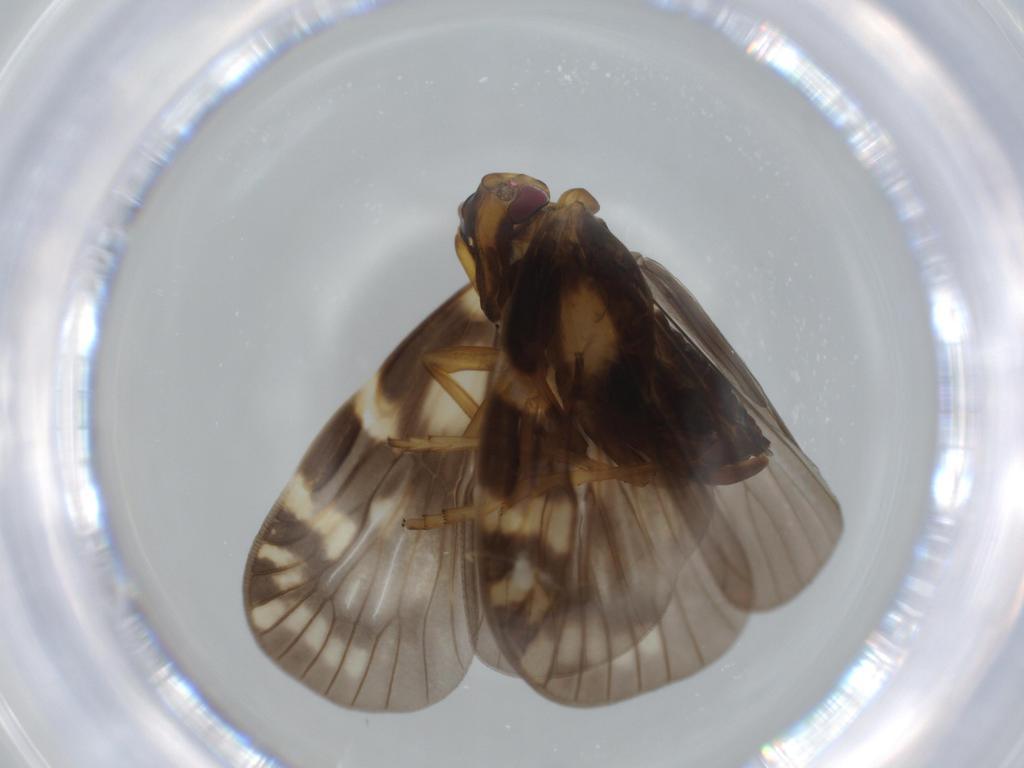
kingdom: Animalia
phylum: Arthropoda
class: Insecta
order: Hemiptera
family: Cixiidae
